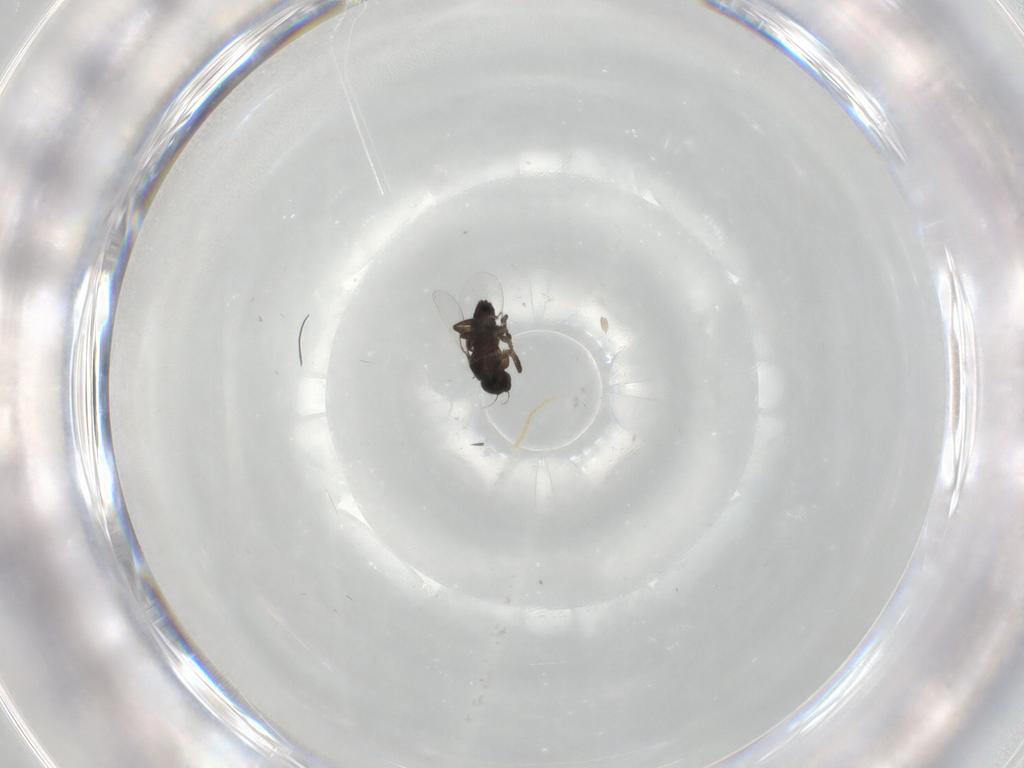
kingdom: Animalia
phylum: Arthropoda
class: Insecta
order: Diptera
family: Phoridae
